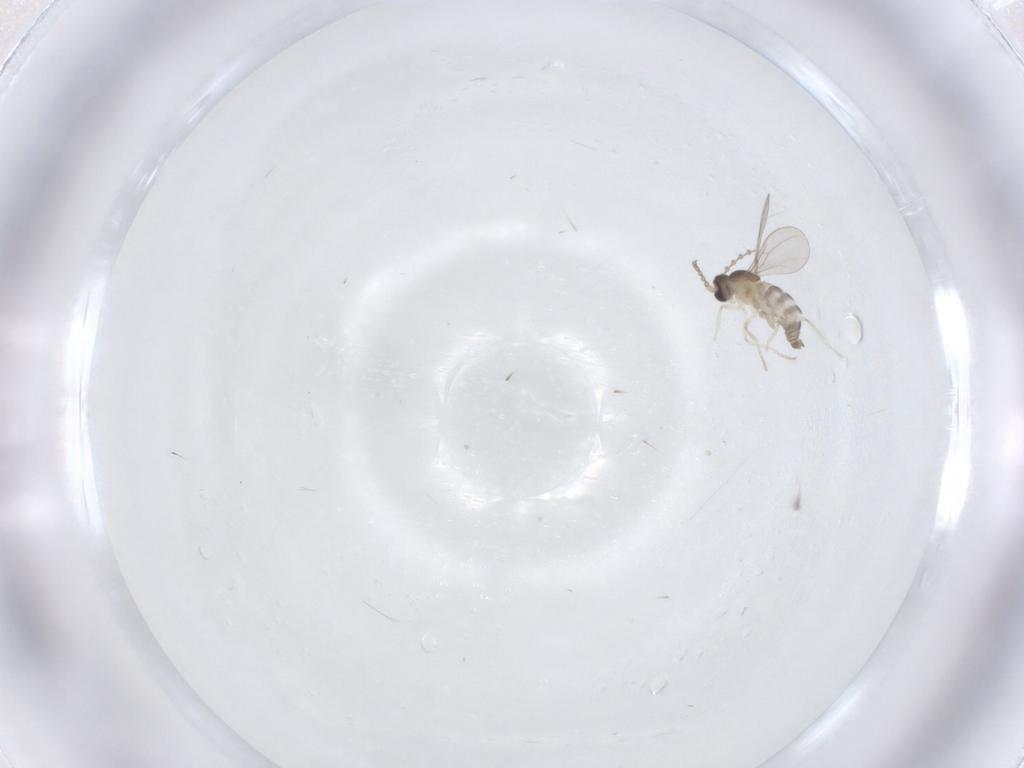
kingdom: Animalia
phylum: Arthropoda
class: Insecta
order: Diptera
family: Cecidomyiidae
